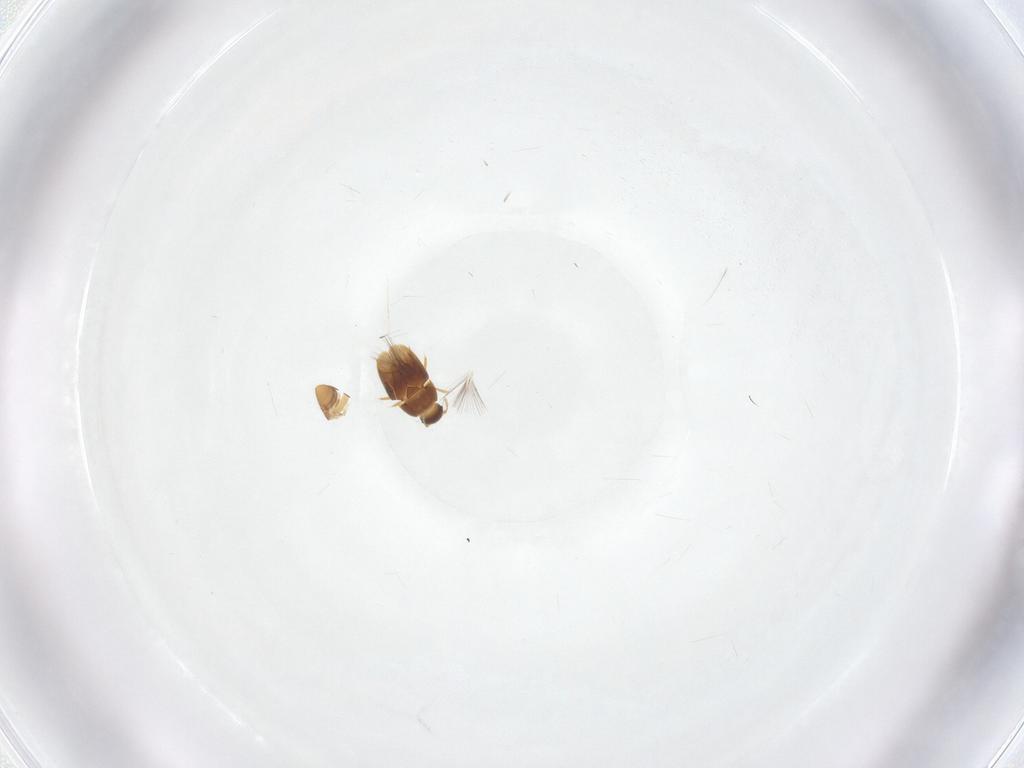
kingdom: Animalia
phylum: Arthropoda
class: Insecta
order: Coleoptera
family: Ptiliidae
